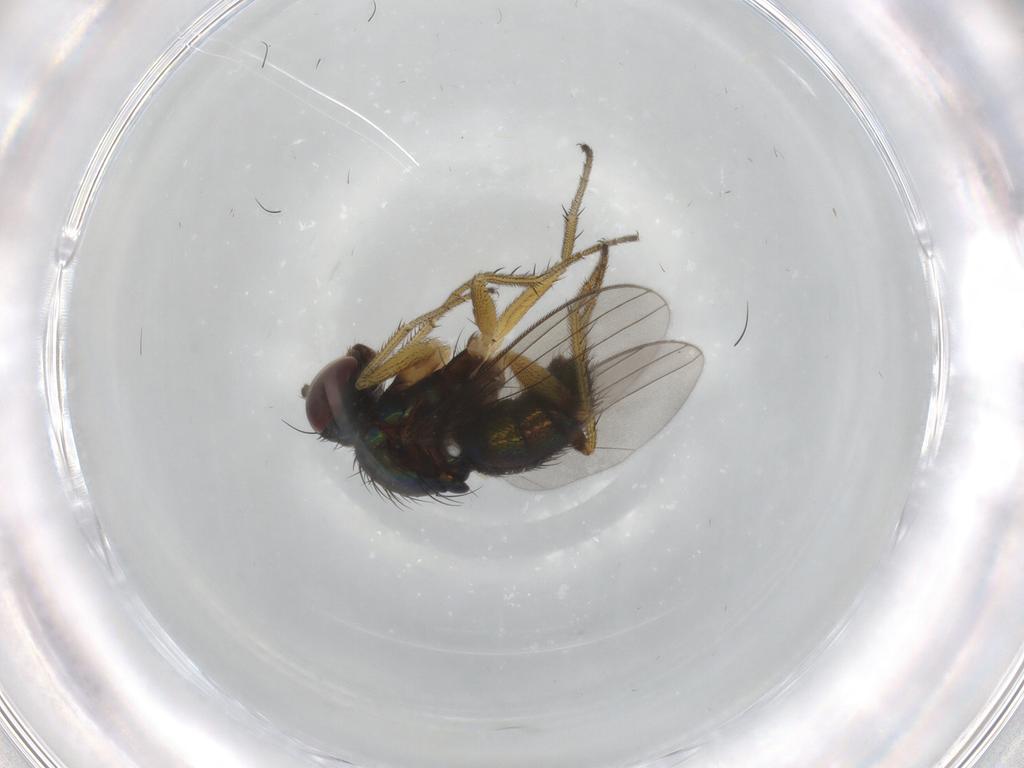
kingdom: Animalia
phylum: Arthropoda
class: Insecta
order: Diptera
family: Dolichopodidae
